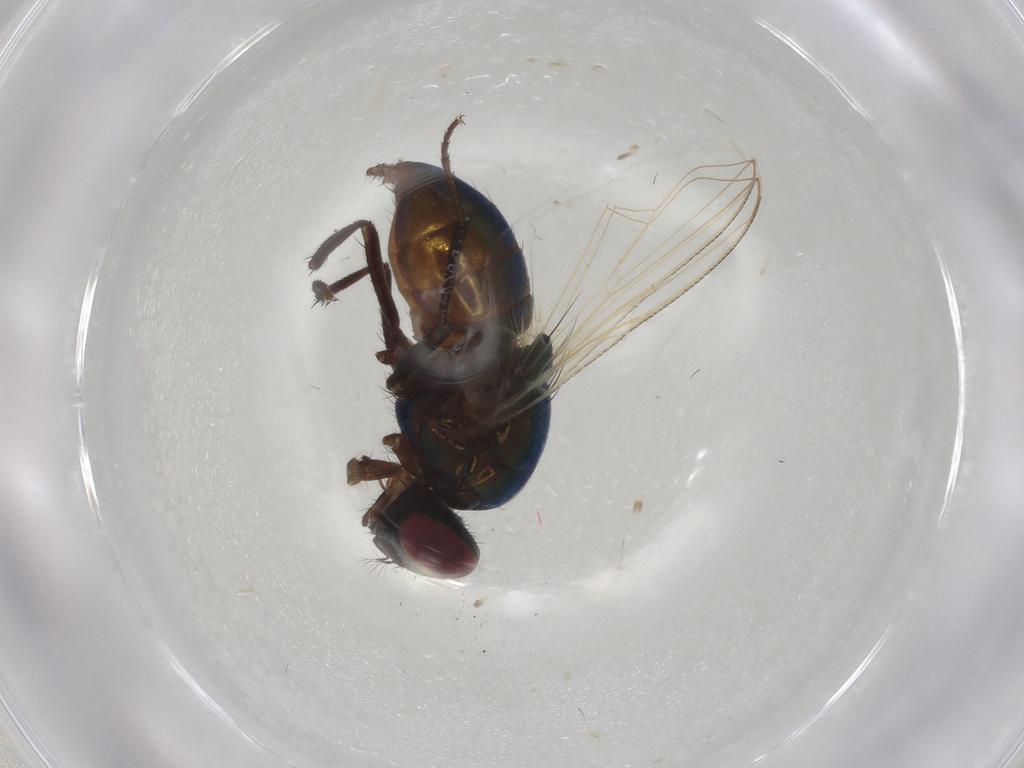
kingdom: Animalia
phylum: Arthropoda
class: Insecta
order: Diptera
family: Muscidae
